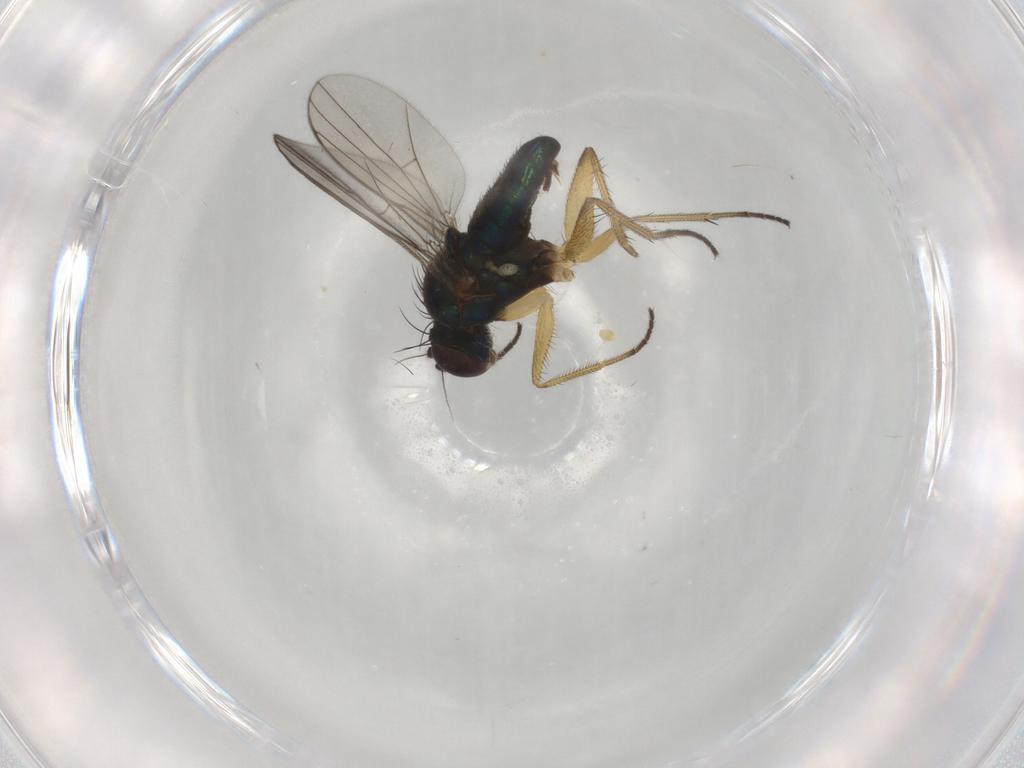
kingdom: Animalia
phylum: Arthropoda
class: Insecta
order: Diptera
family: Dolichopodidae
